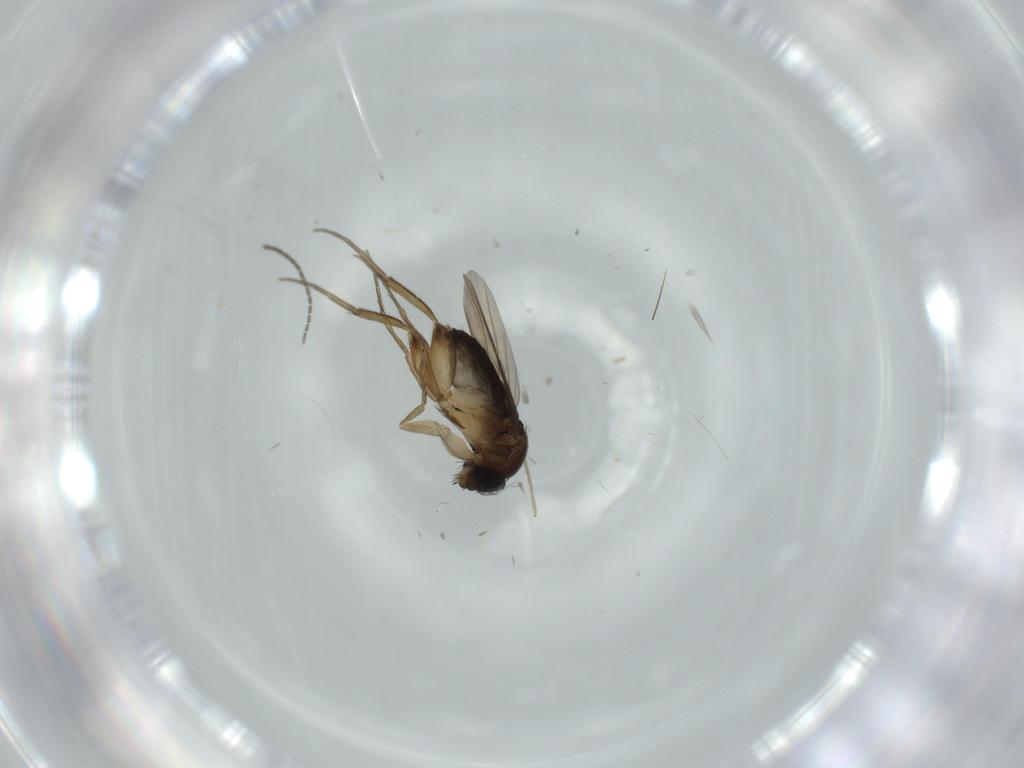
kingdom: Animalia
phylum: Arthropoda
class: Insecta
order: Diptera
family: Phoridae
